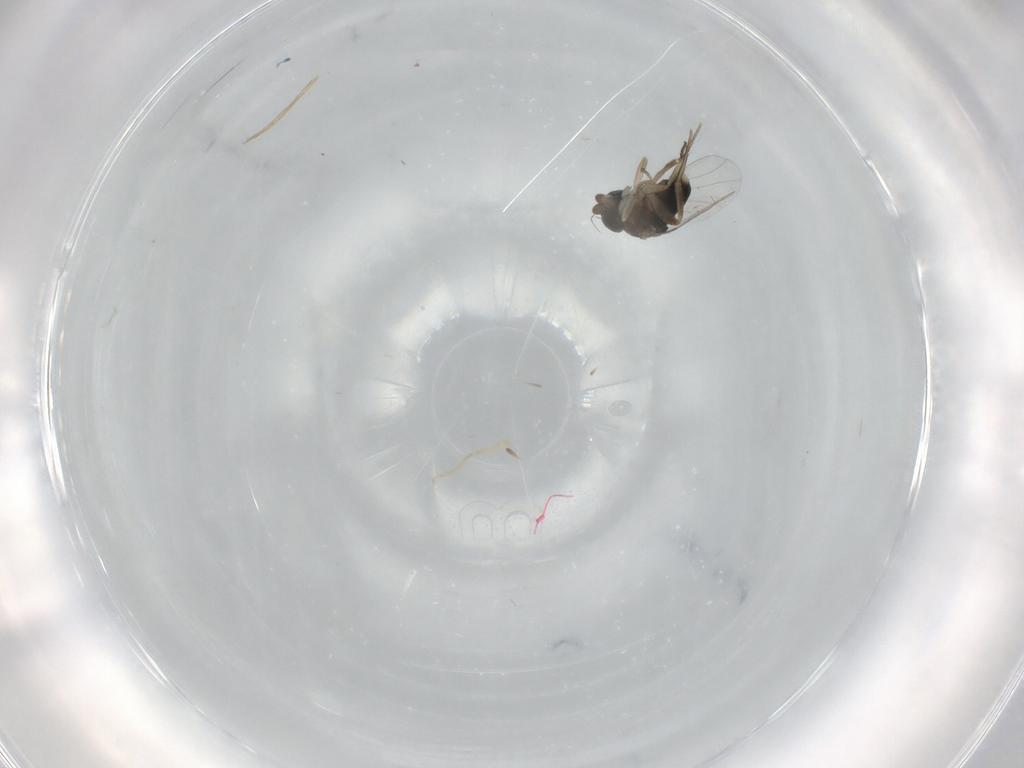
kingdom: Animalia
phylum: Arthropoda
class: Insecta
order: Diptera
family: Phoridae
